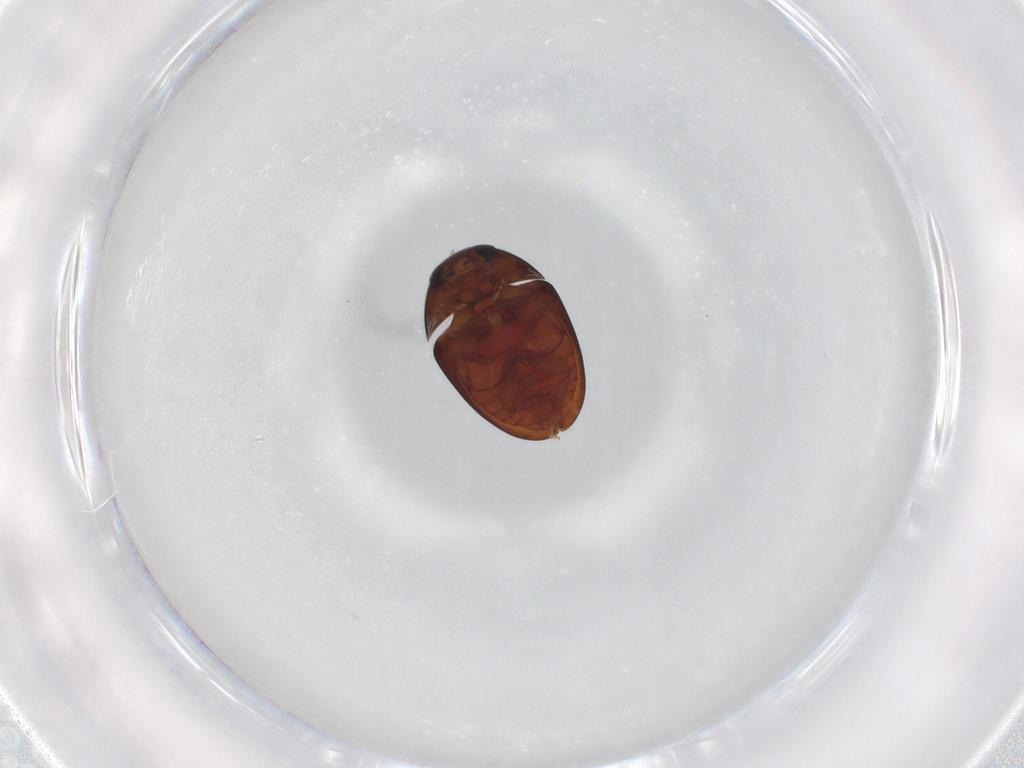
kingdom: Animalia
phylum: Arthropoda
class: Insecta
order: Coleoptera
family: Phalacridae
